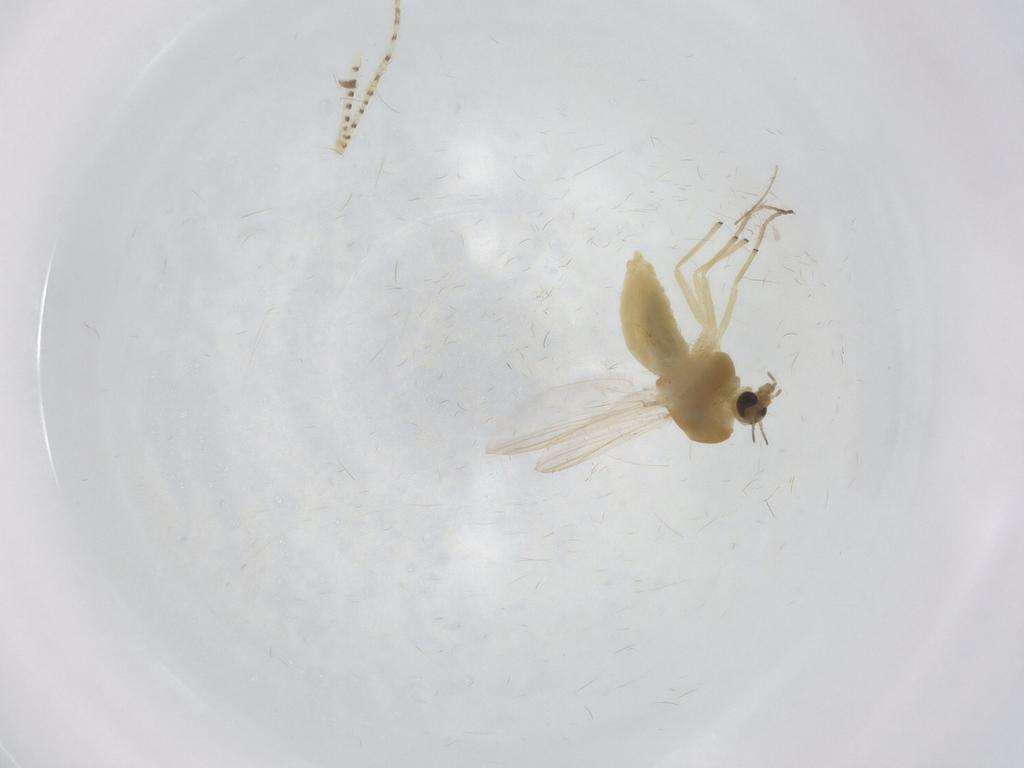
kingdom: Animalia
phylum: Arthropoda
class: Insecta
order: Diptera
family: Chironomidae
